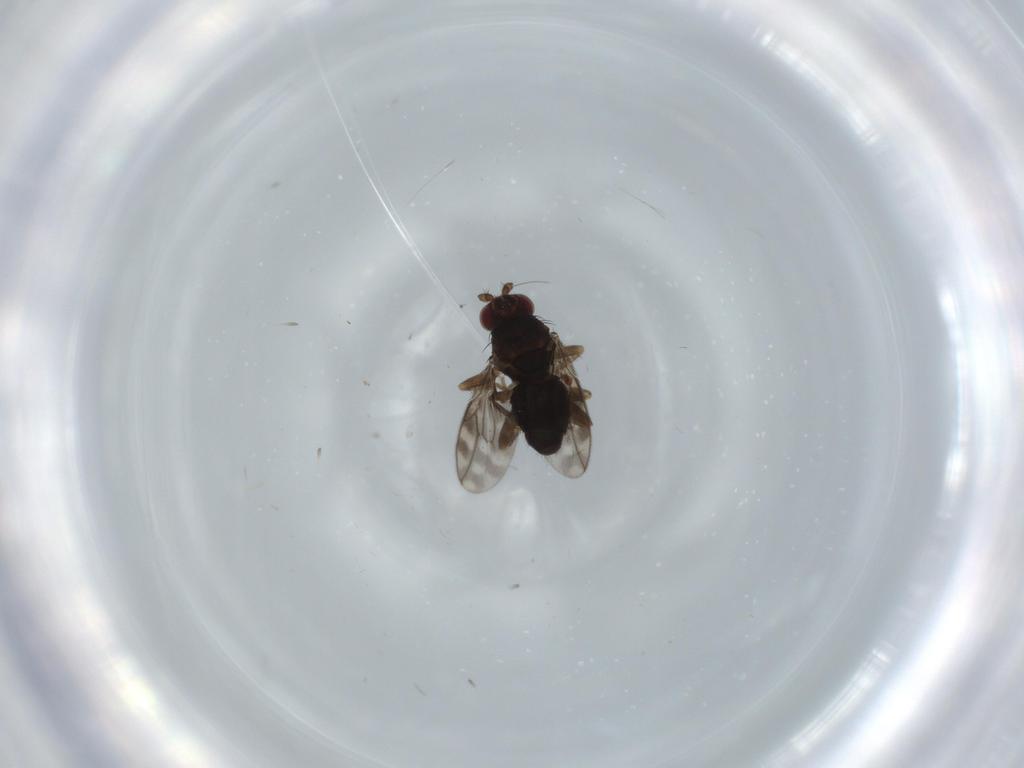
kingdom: Animalia
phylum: Arthropoda
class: Insecta
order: Diptera
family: Sphaeroceridae
